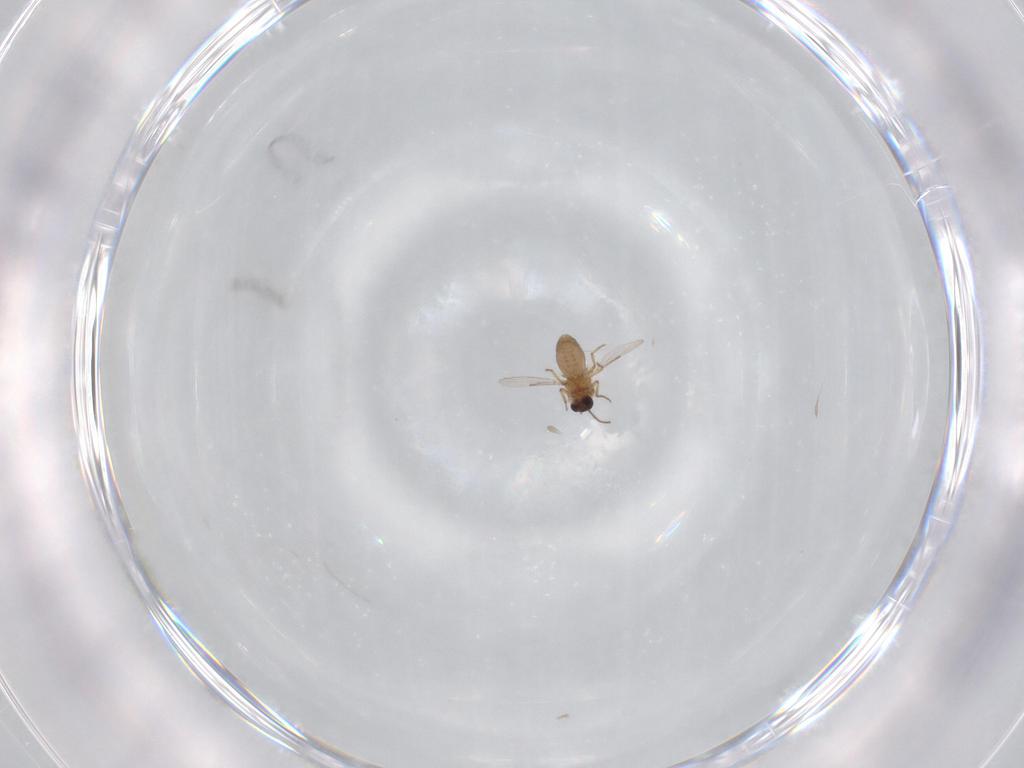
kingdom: Animalia
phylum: Arthropoda
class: Insecta
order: Diptera
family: Ceratopogonidae
